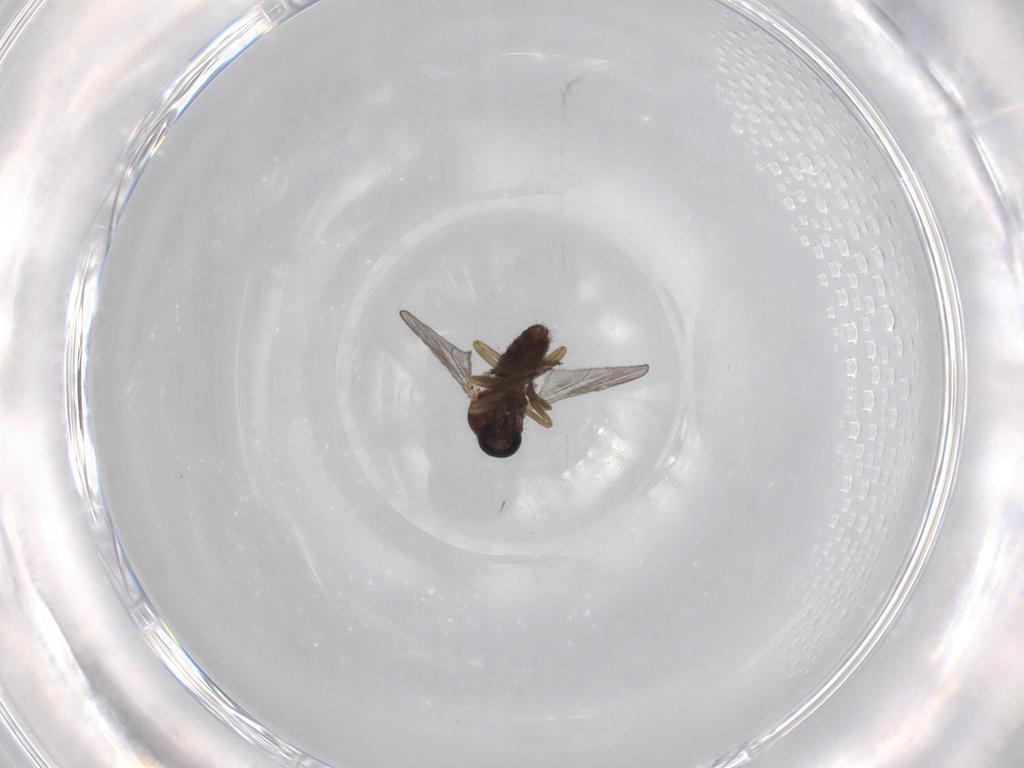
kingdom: Animalia
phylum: Arthropoda
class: Insecta
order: Diptera
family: Ceratopogonidae
